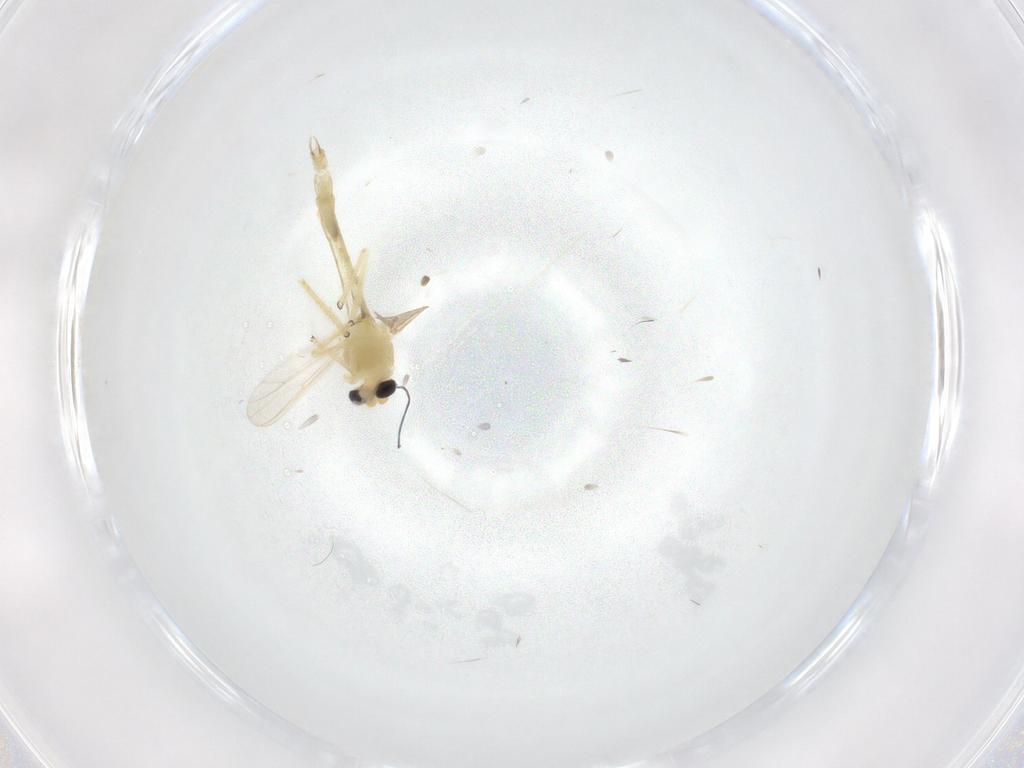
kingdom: Animalia
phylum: Arthropoda
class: Insecta
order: Diptera
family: Chironomidae
